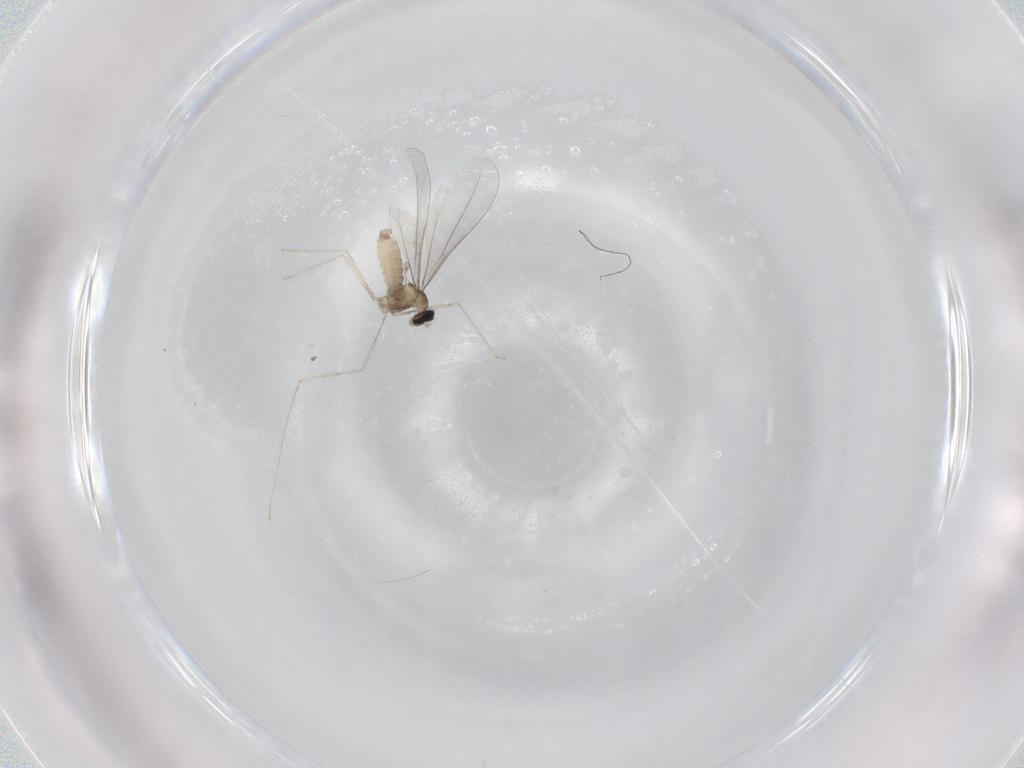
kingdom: Animalia
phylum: Arthropoda
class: Insecta
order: Diptera
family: Cecidomyiidae
